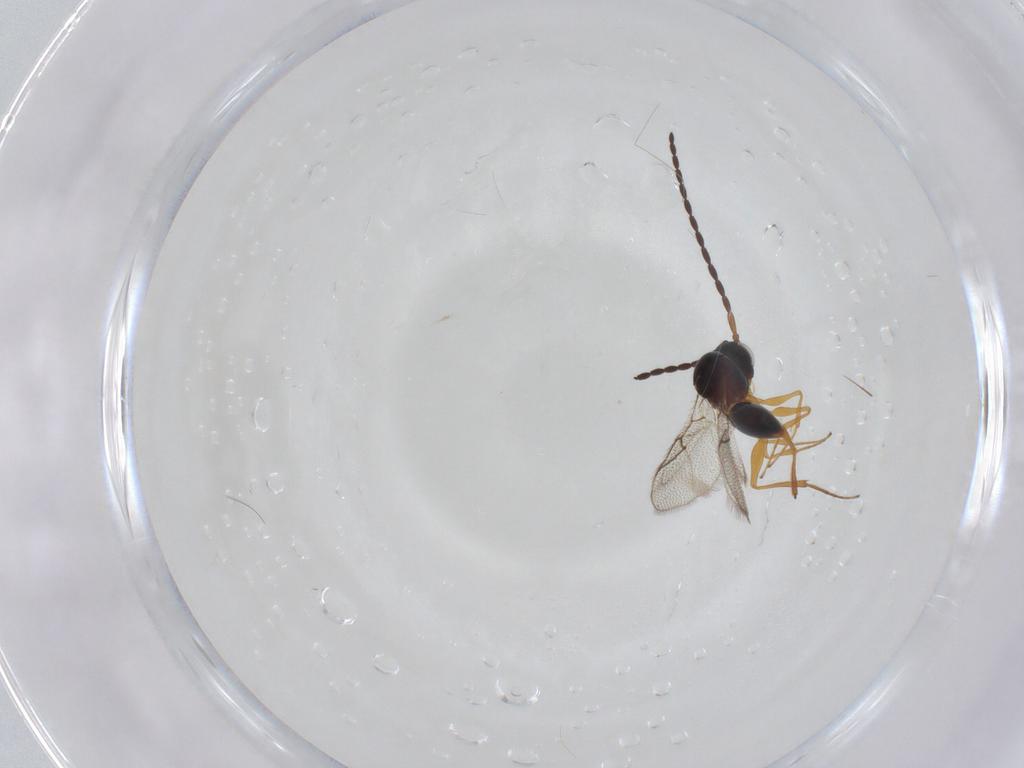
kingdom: Animalia
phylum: Arthropoda
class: Insecta
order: Hymenoptera
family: Figitidae
